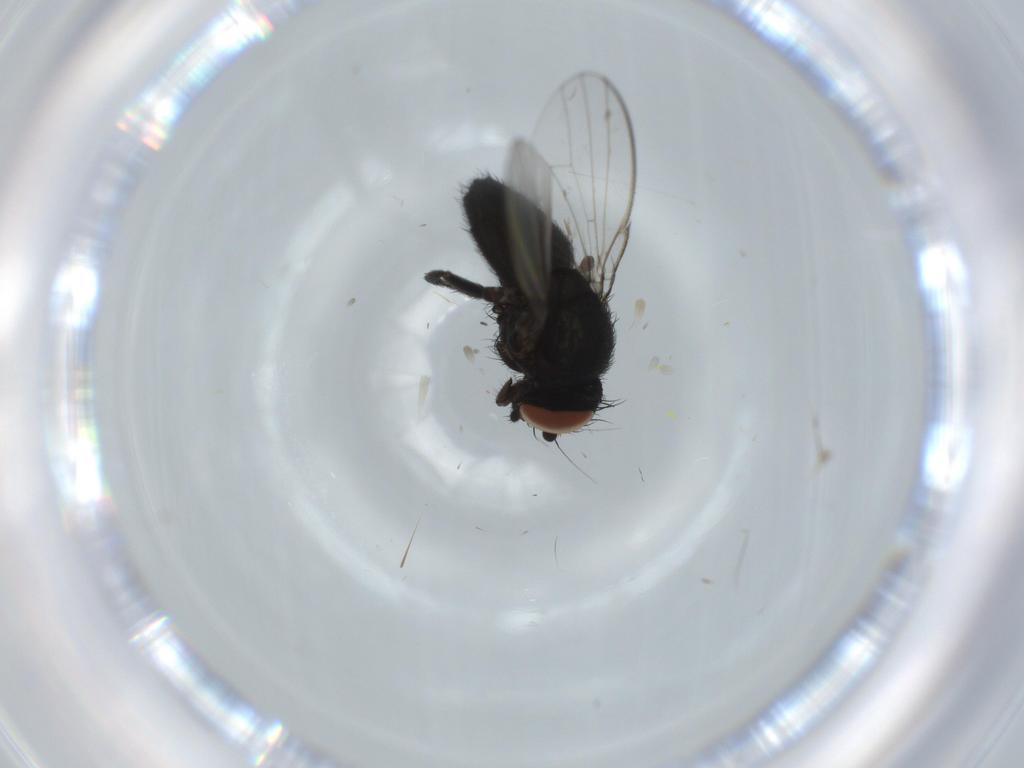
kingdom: Animalia
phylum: Arthropoda
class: Insecta
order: Diptera
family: Milichiidae
